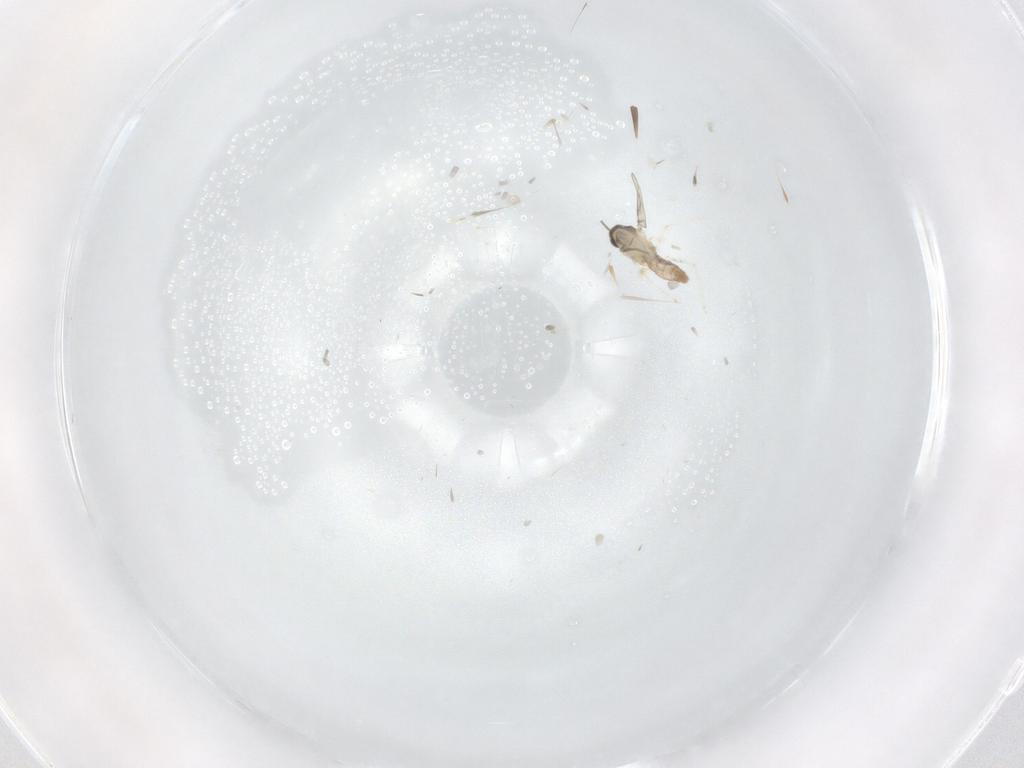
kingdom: Animalia
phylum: Arthropoda
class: Insecta
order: Diptera
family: Cecidomyiidae
